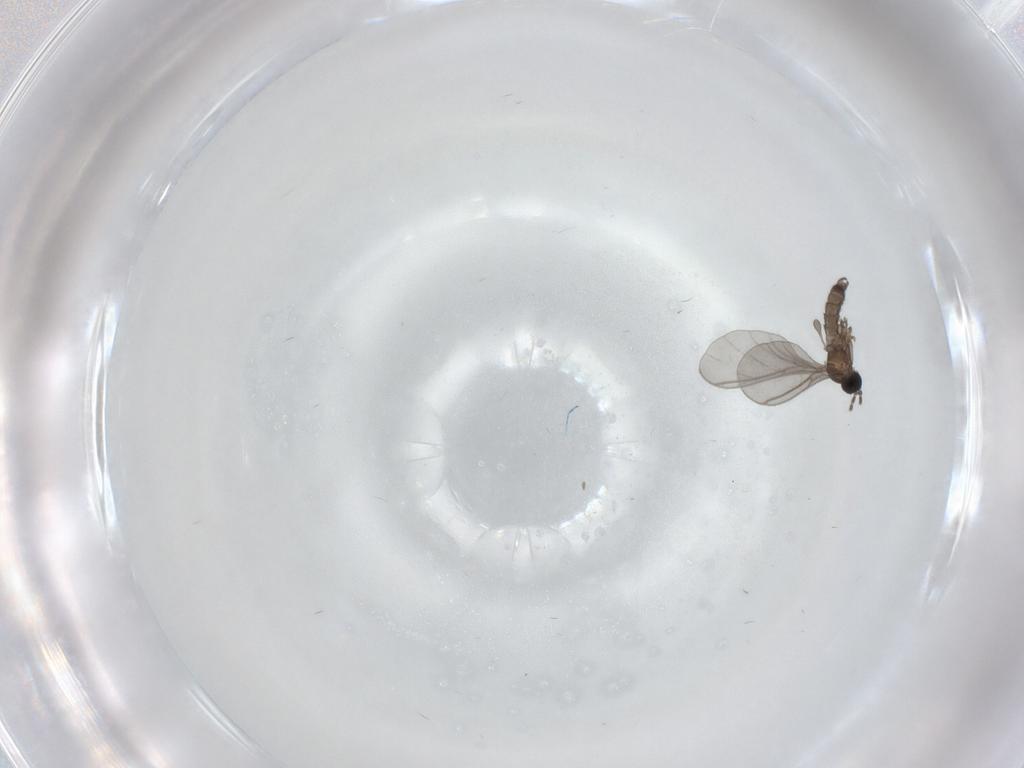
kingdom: Animalia
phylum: Arthropoda
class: Insecta
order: Diptera
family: Sciaridae
